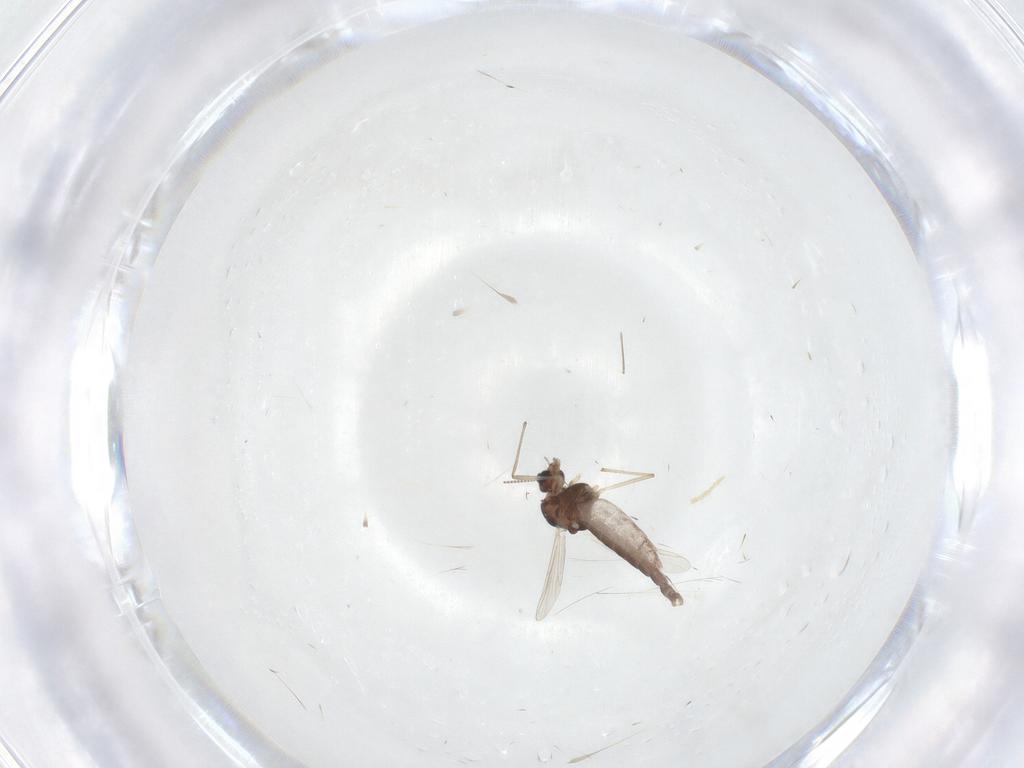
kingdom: Animalia
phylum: Arthropoda
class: Insecta
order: Diptera
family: Chironomidae
